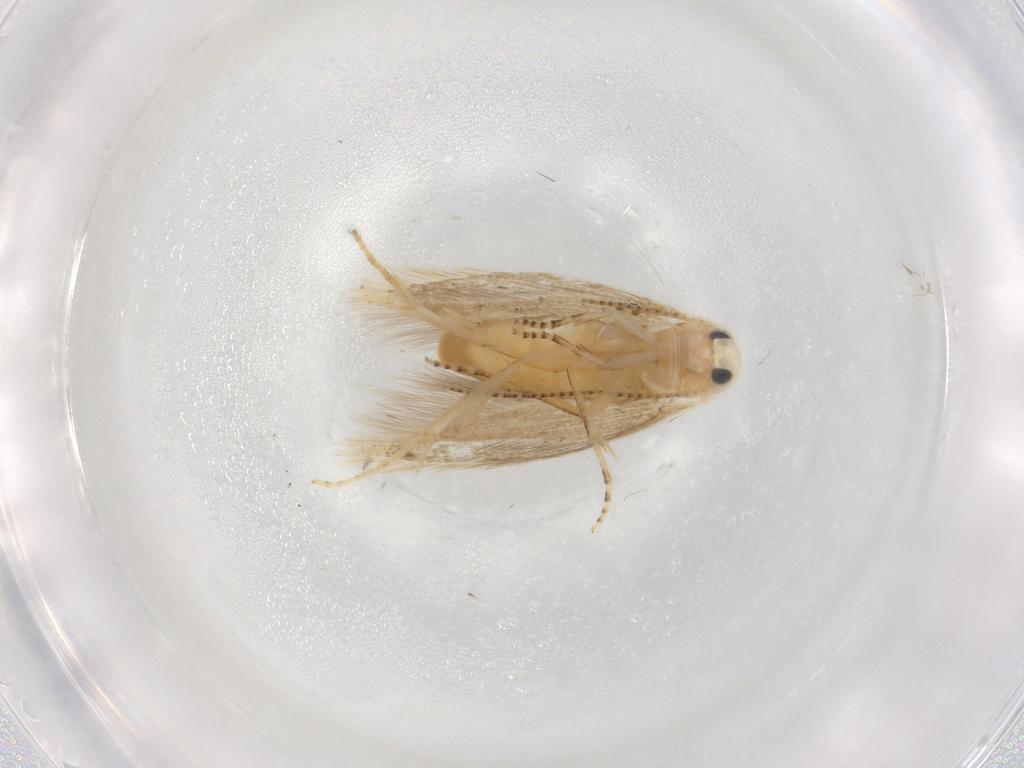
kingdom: Animalia
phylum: Arthropoda
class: Insecta
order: Lepidoptera
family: Bucculatricidae
